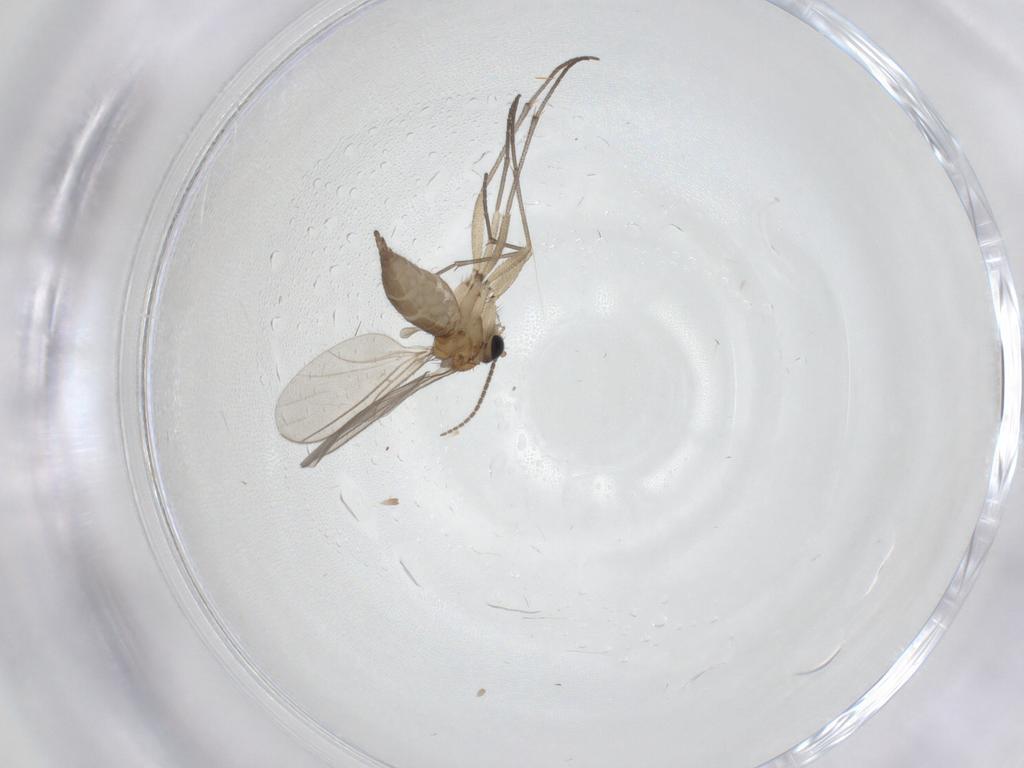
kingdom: Animalia
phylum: Arthropoda
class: Insecta
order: Diptera
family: Sciaridae
